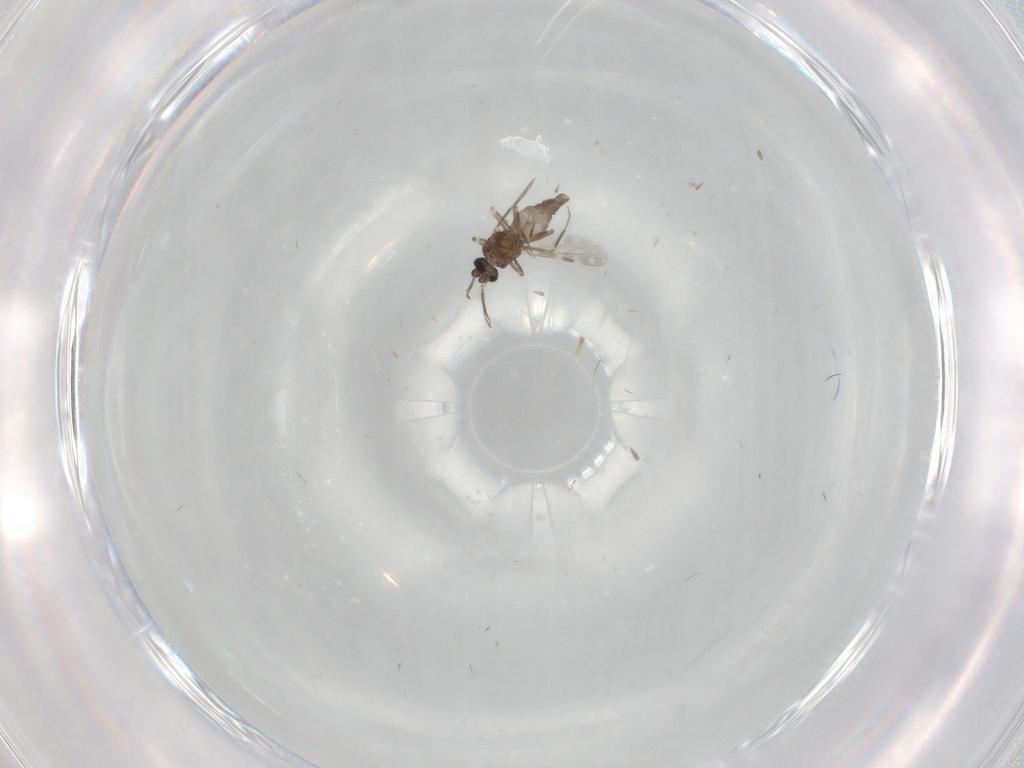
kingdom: Animalia
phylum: Arthropoda
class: Insecta
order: Diptera
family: Ceratopogonidae
